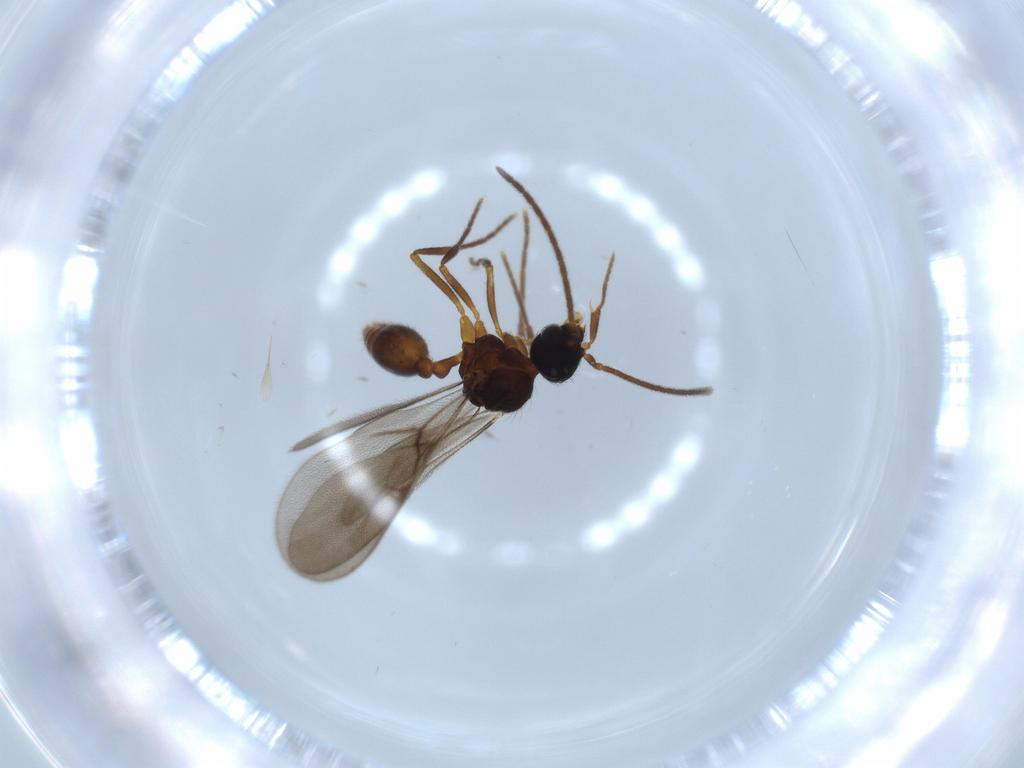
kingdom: Animalia
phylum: Arthropoda
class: Insecta
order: Hymenoptera
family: Formicidae
